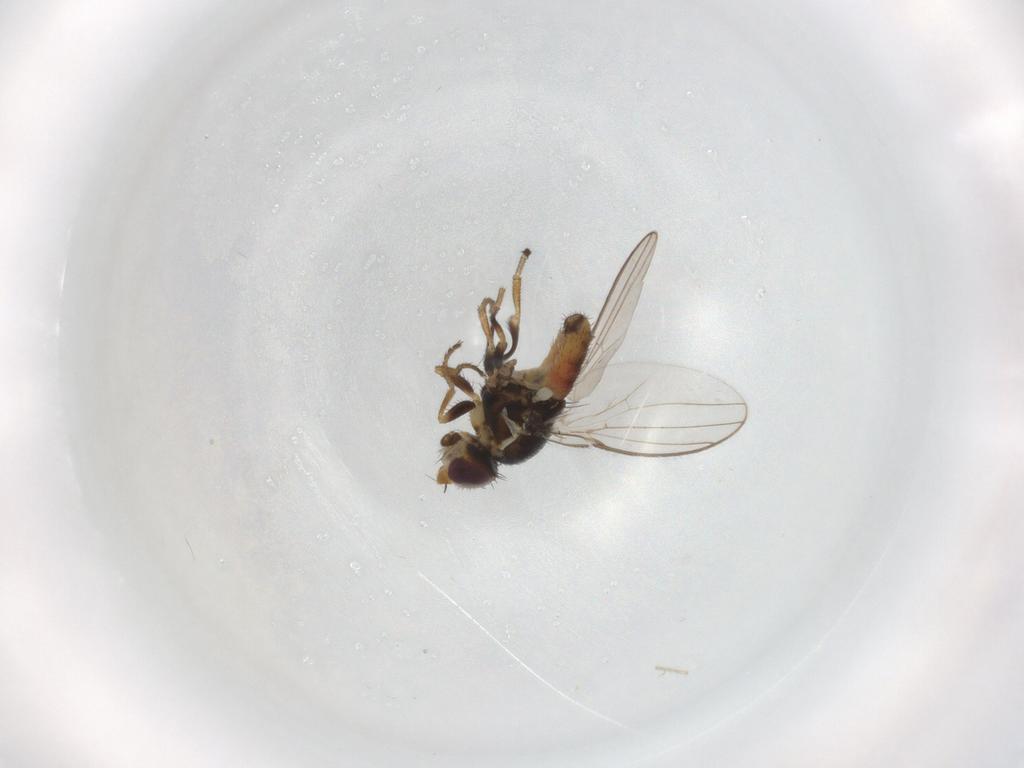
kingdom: Animalia
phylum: Arthropoda
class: Insecta
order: Diptera
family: Chloropidae
